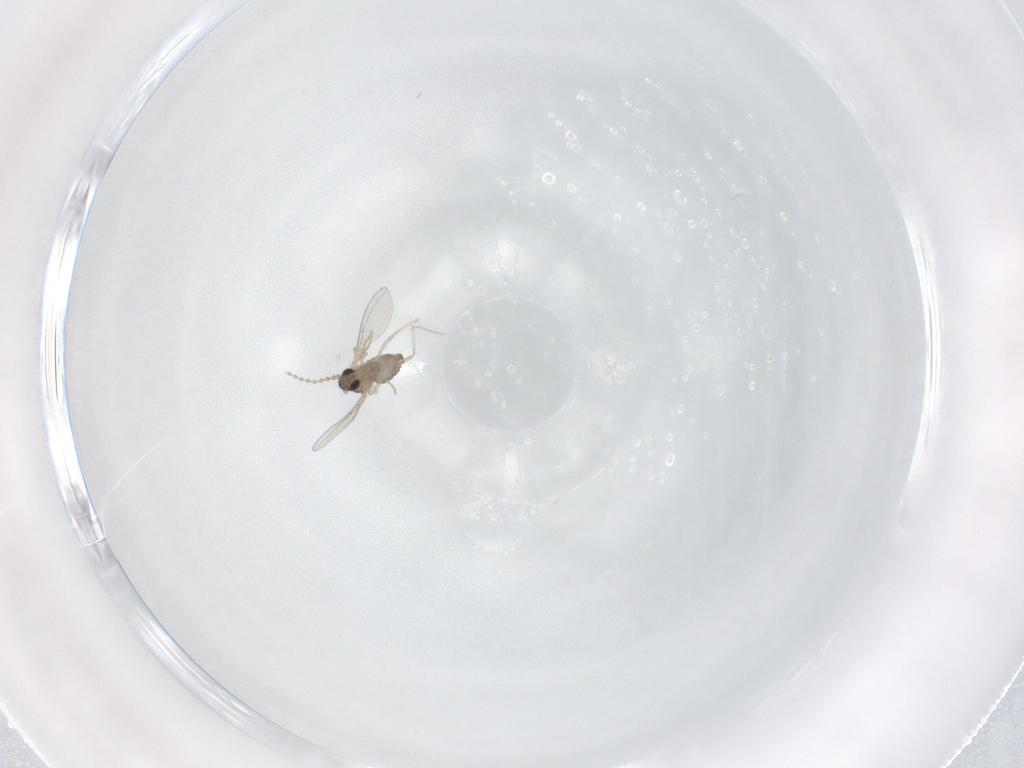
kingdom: Animalia
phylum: Arthropoda
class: Insecta
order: Diptera
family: Cecidomyiidae
